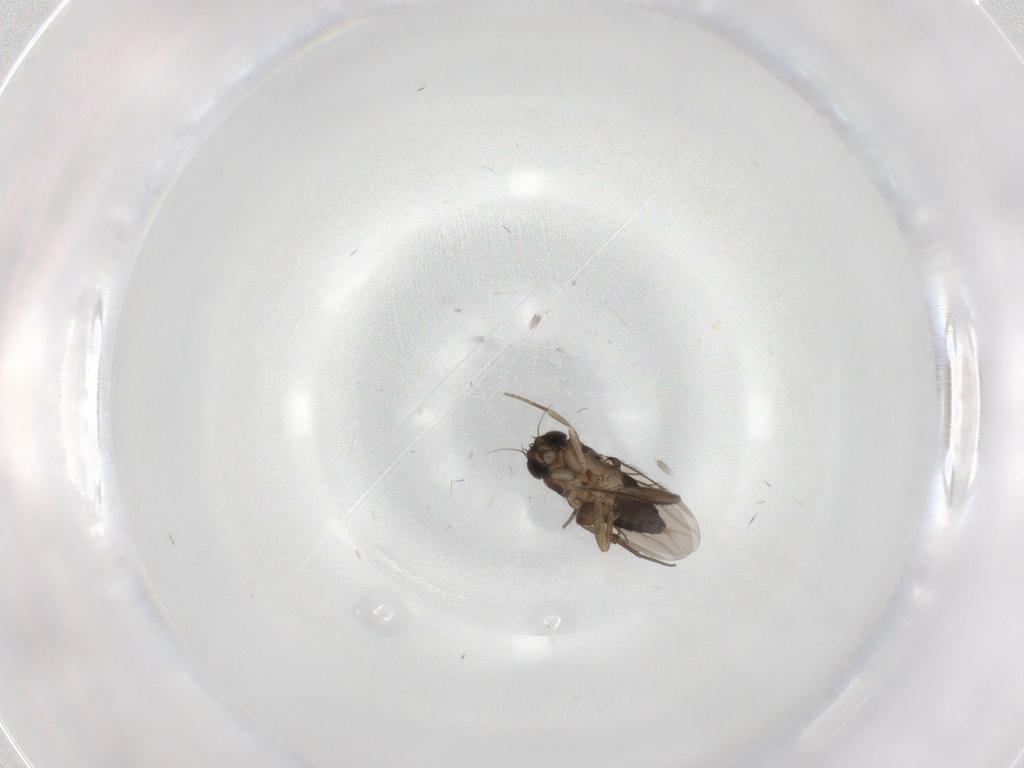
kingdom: Animalia
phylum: Arthropoda
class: Insecta
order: Diptera
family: Phoridae
